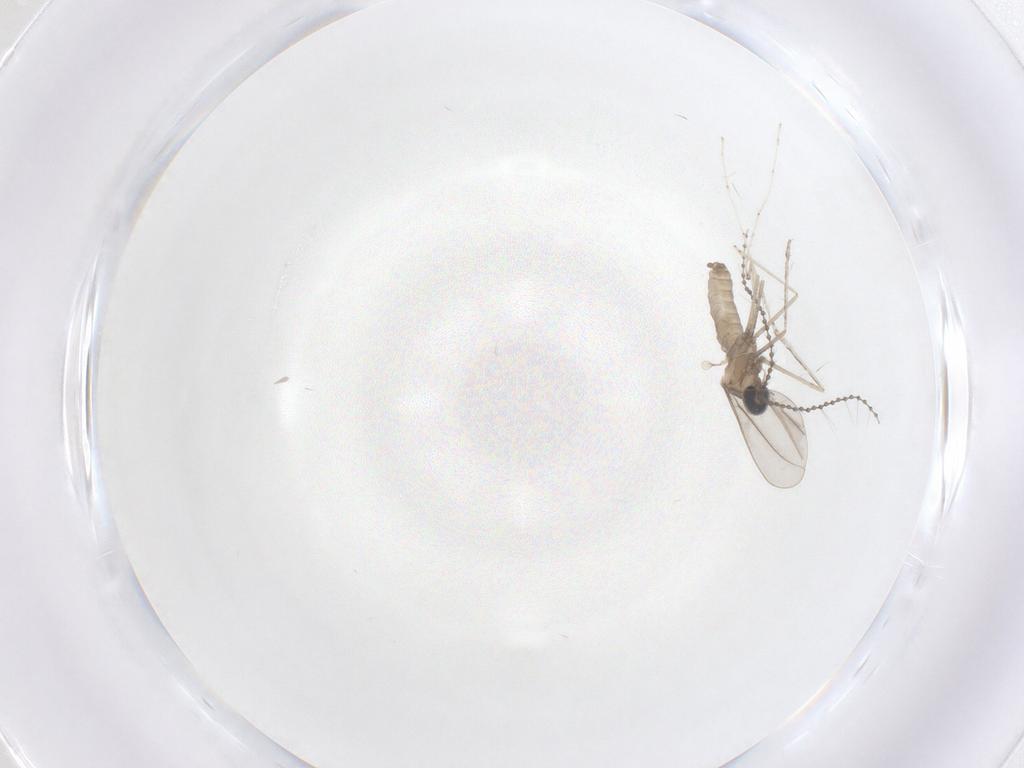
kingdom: Animalia
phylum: Arthropoda
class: Insecta
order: Diptera
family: Cecidomyiidae
